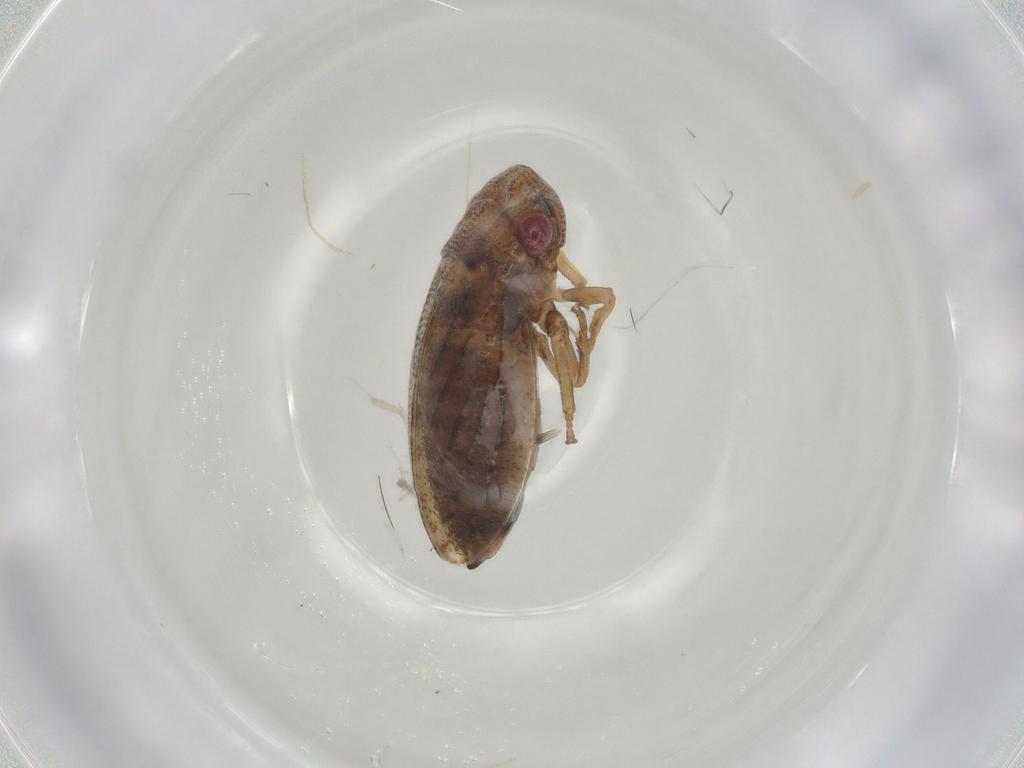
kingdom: Animalia
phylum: Arthropoda
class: Insecta
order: Hemiptera
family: Cicadellidae
